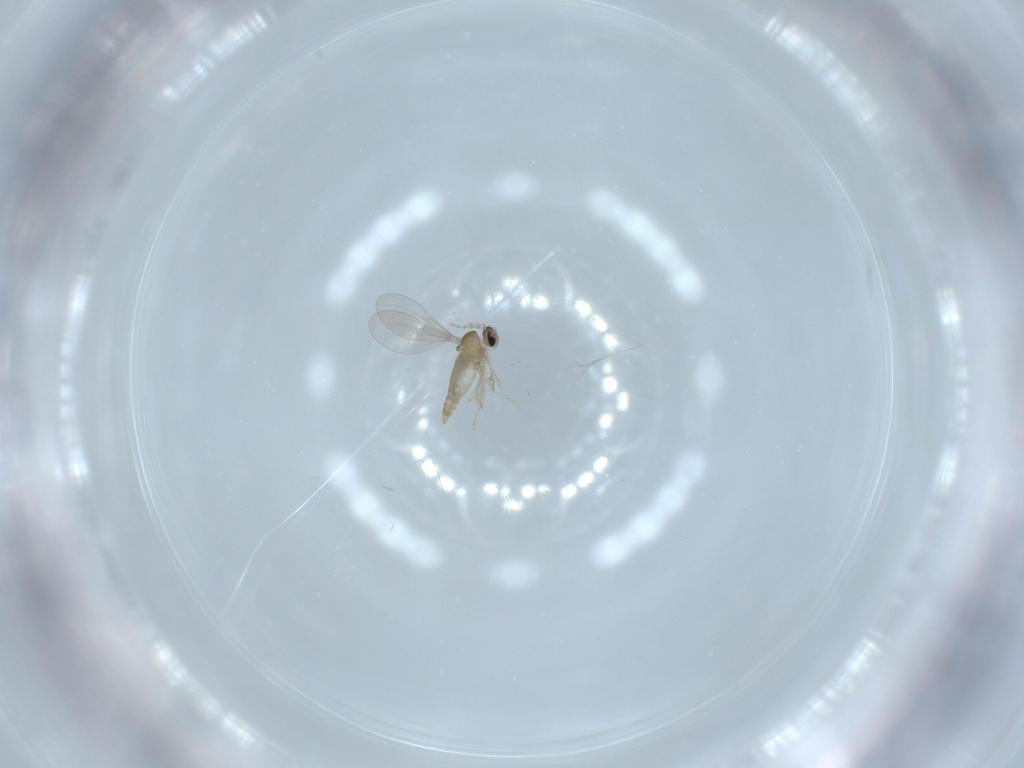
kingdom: Animalia
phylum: Arthropoda
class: Insecta
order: Diptera
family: Cecidomyiidae
